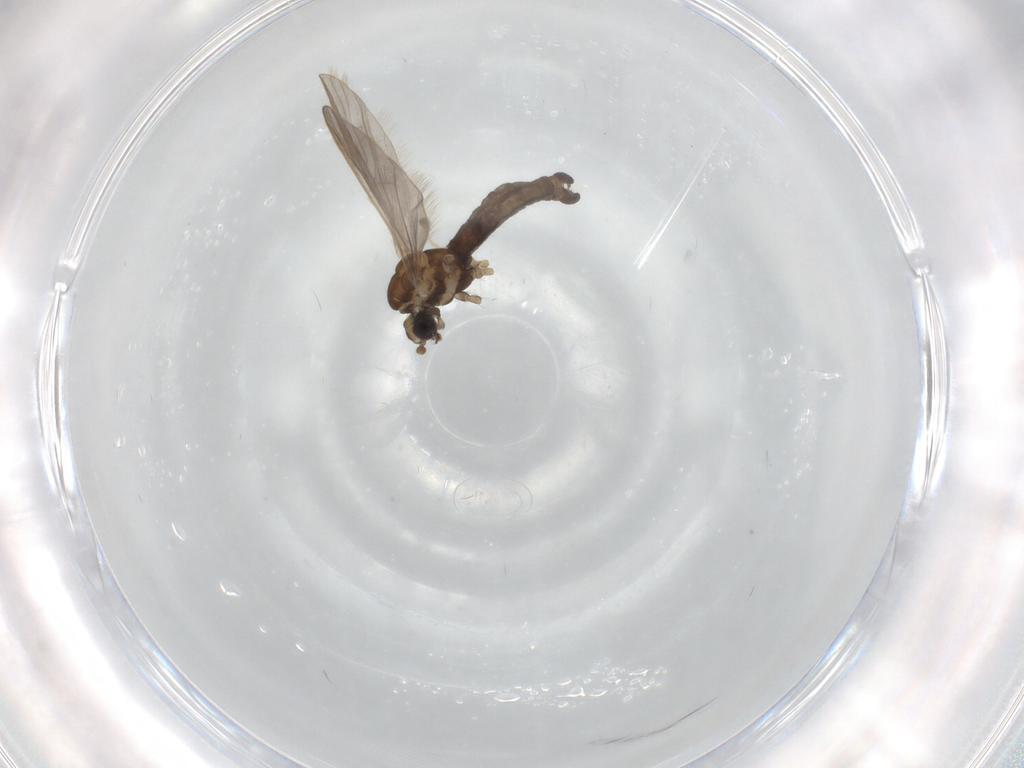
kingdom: Animalia
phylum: Arthropoda
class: Insecta
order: Diptera
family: Limoniidae
